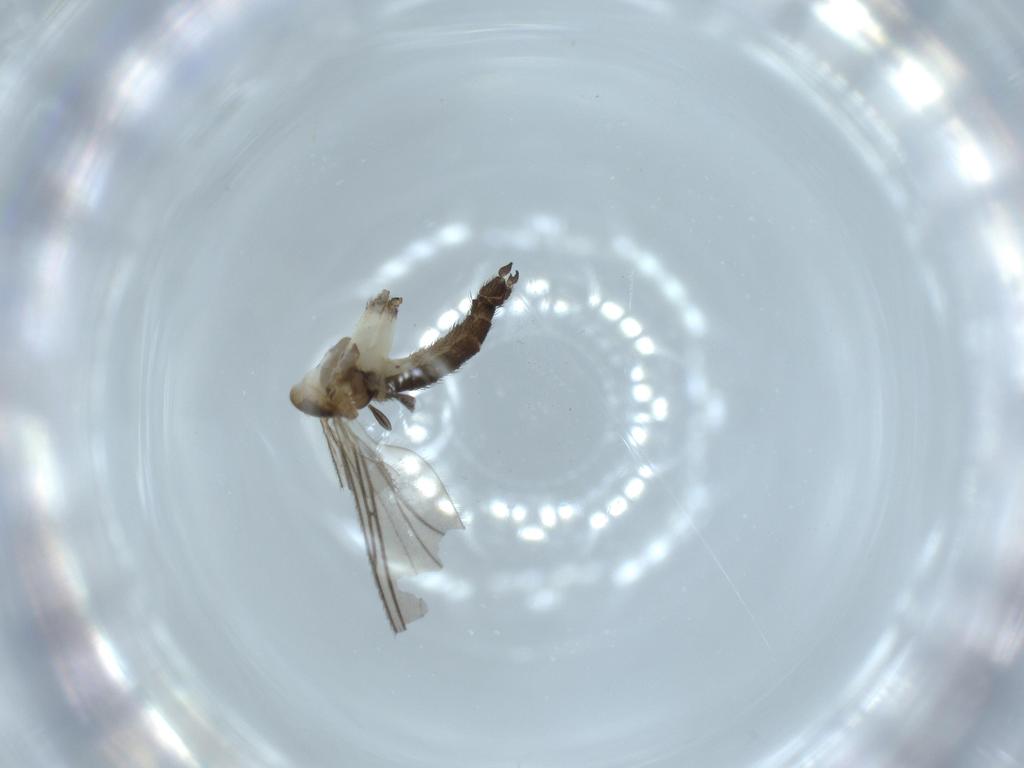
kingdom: Animalia
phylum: Arthropoda
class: Insecta
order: Diptera
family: Sciaridae
